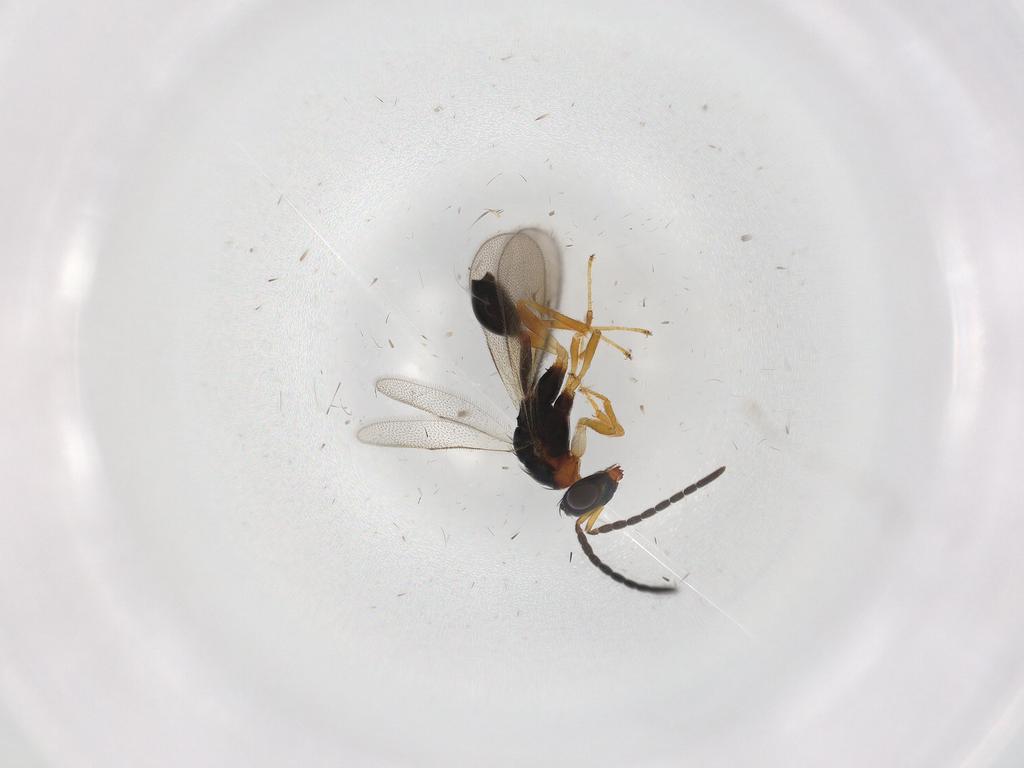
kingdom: Animalia
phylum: Arthropoda
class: Insecta
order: Hymenoptera
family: Diparidae
